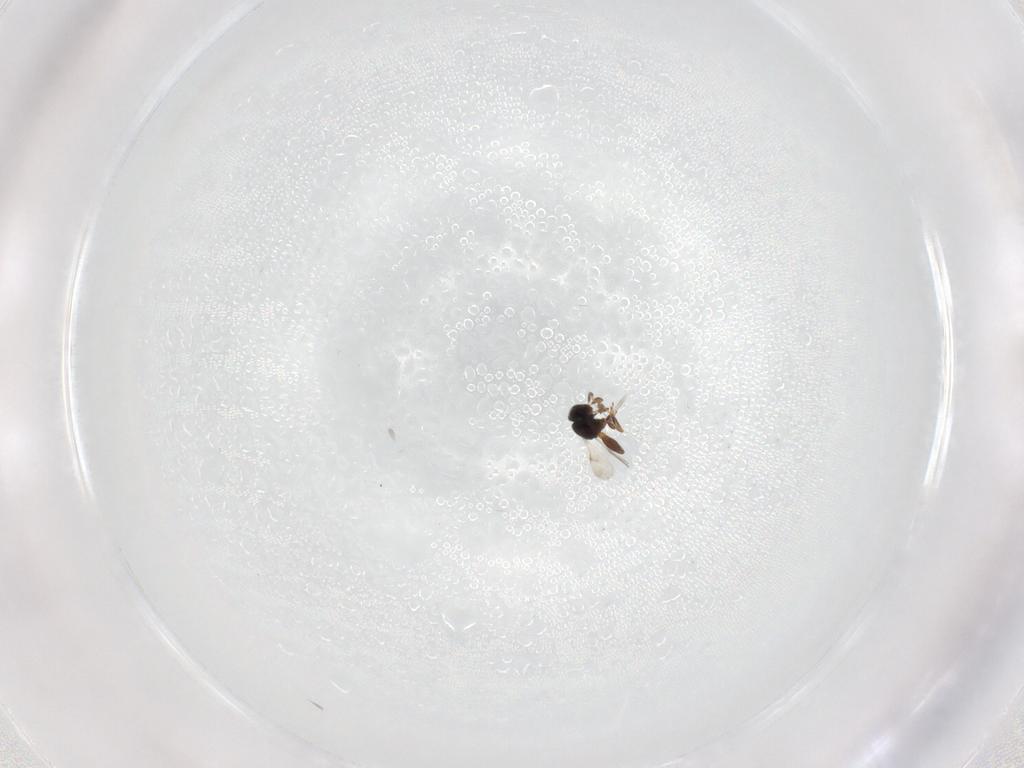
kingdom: Animalia
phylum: Arthropoda
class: Insecta
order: Hymenoptera
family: Scelionidae
